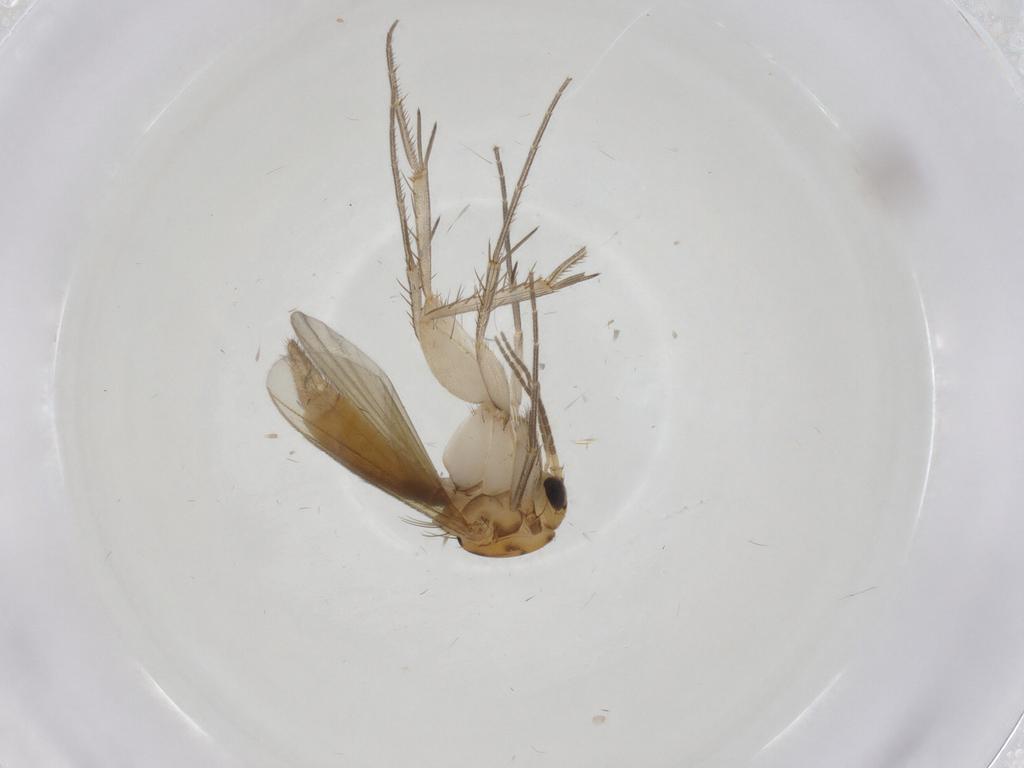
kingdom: Animalia
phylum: Arthropoda
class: Insecta
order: Diptera
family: Mycetophilidae
